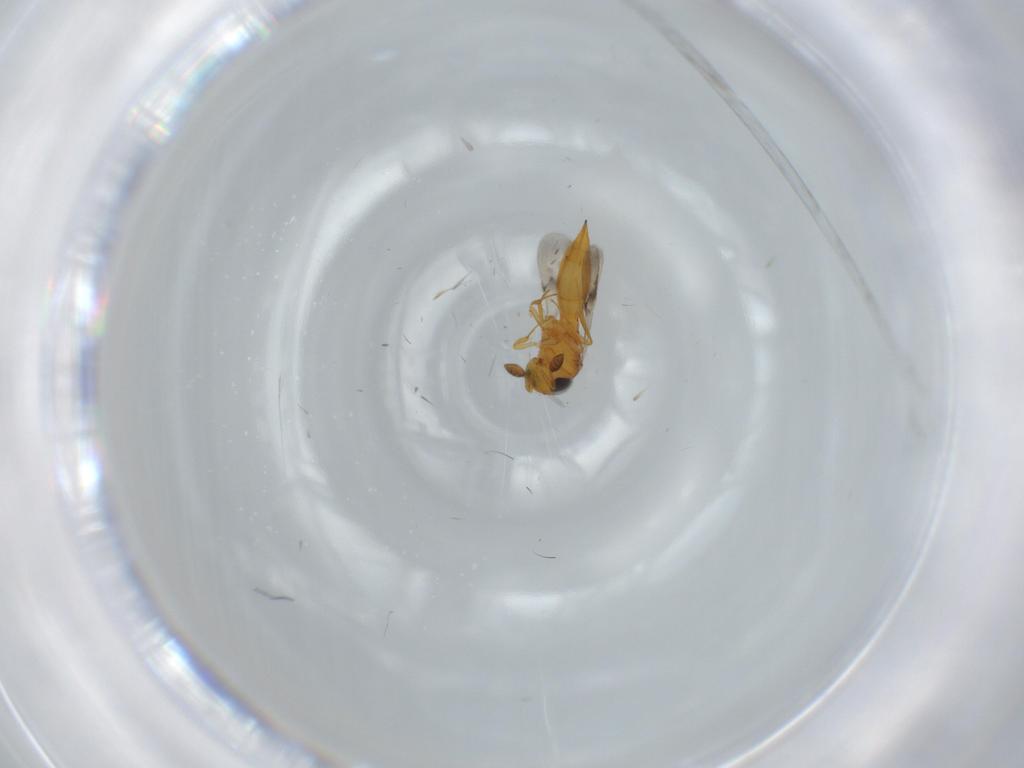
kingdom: Animalia
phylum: Arthropoda
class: Insecta
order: Hymenoptera
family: Scelionidae
